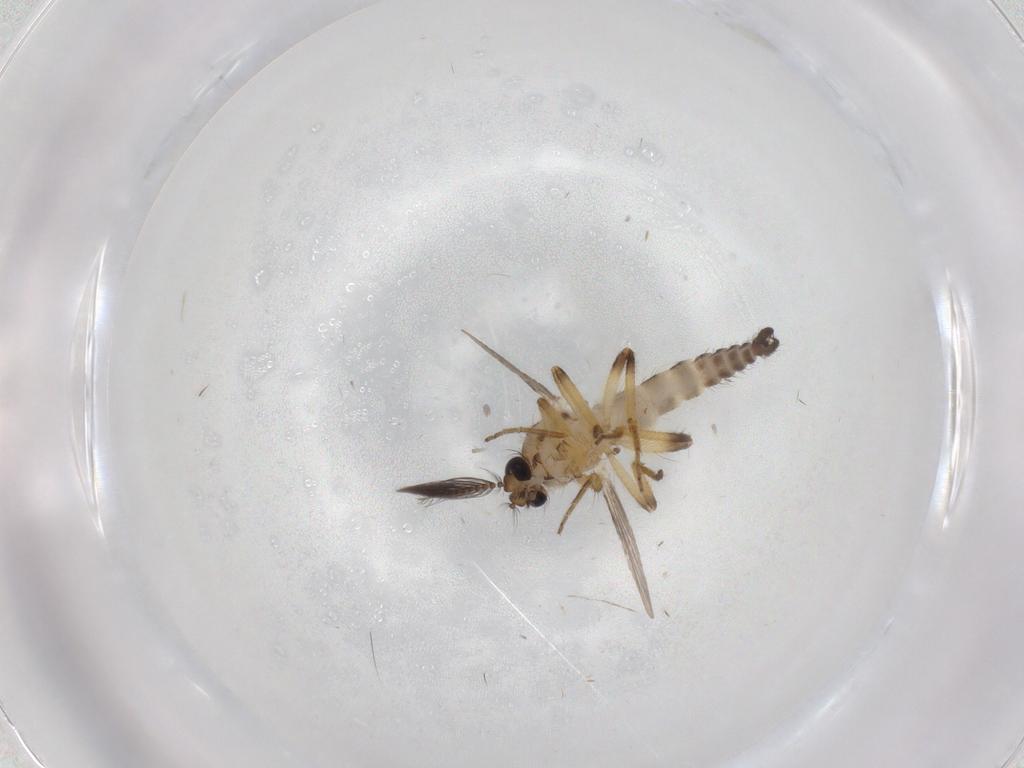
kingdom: Animalia
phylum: Arthropoda
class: Insecta
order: Diptera
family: Ceratopogonidae
